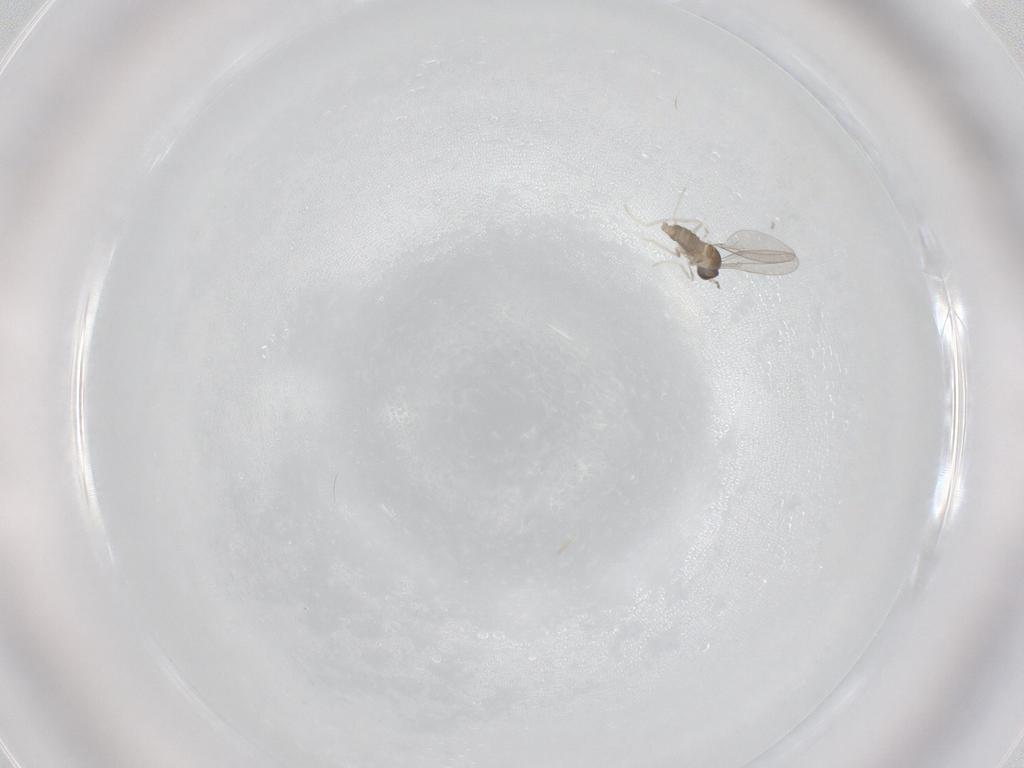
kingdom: Animalia
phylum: Arthropoda
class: Insecta
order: Diptera
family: Cecidomyiidae
